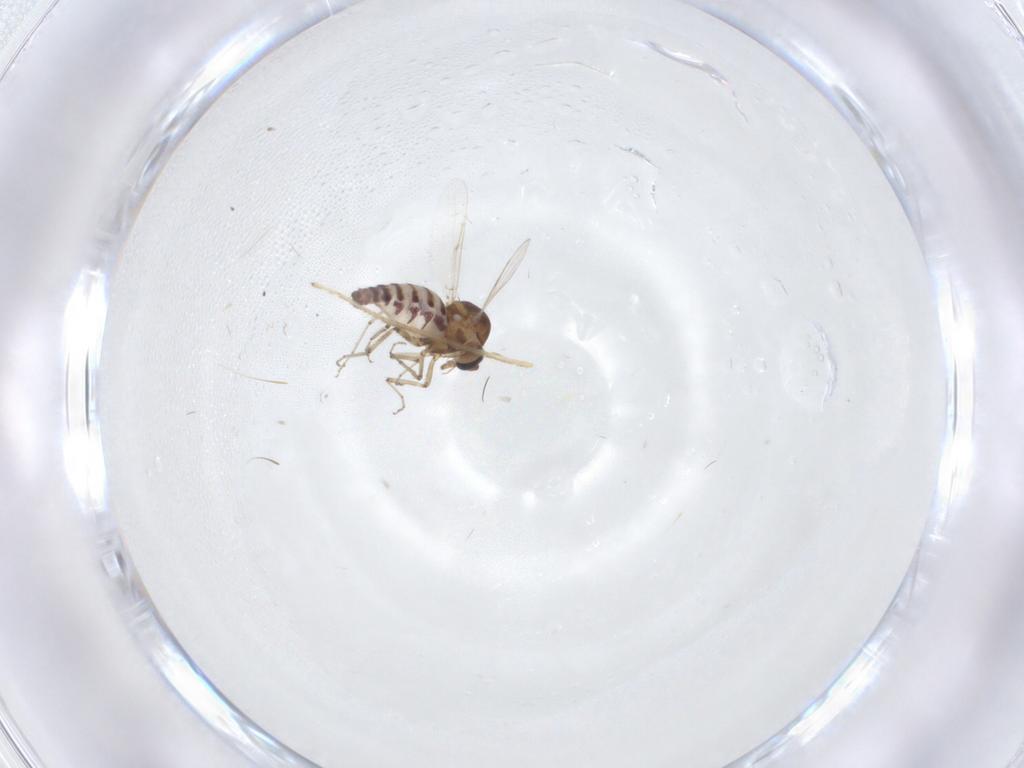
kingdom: Animalia
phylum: Arthropoda
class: Insecta
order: Diptera
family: Ceratopogonidae
